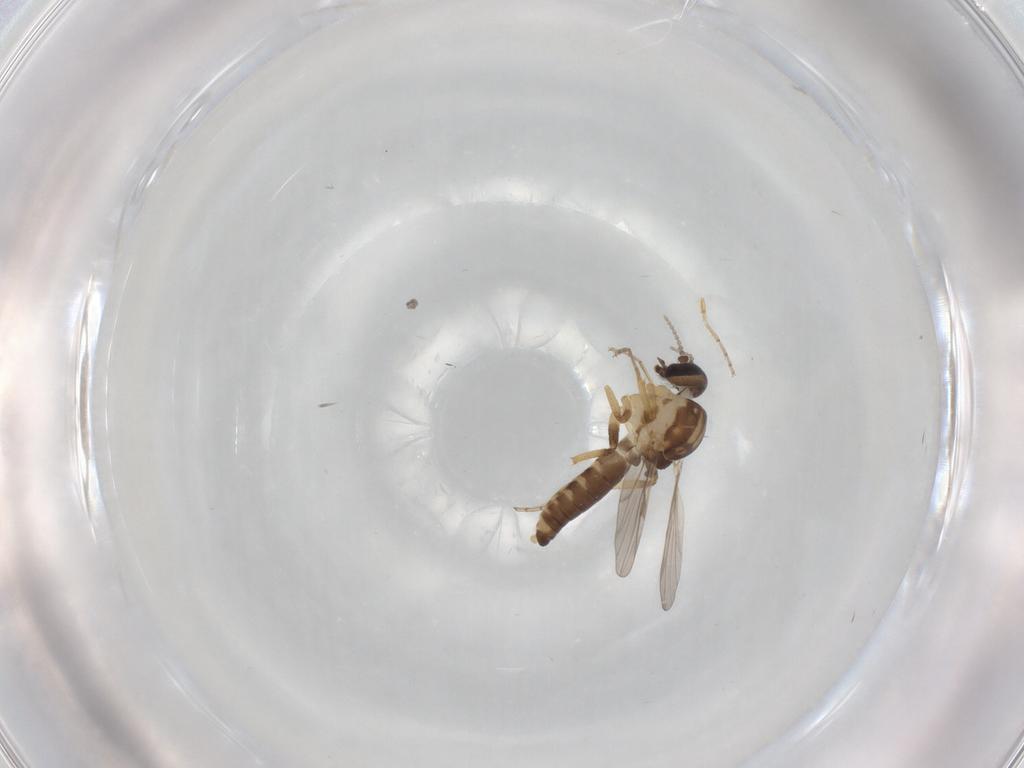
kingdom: Animalia
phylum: Arthropoda
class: Insecta
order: Diptera
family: Ceratopogonidae
